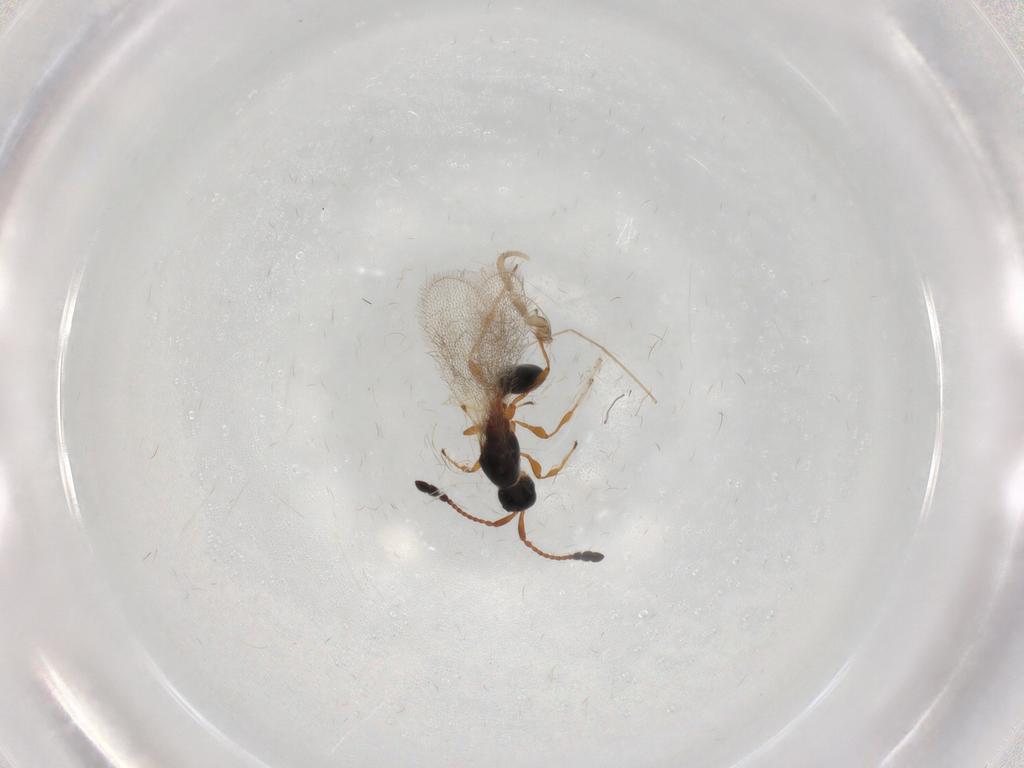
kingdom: Animalia
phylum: Arthropoda
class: Insecta
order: Hymenoptera
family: Diapriidae
